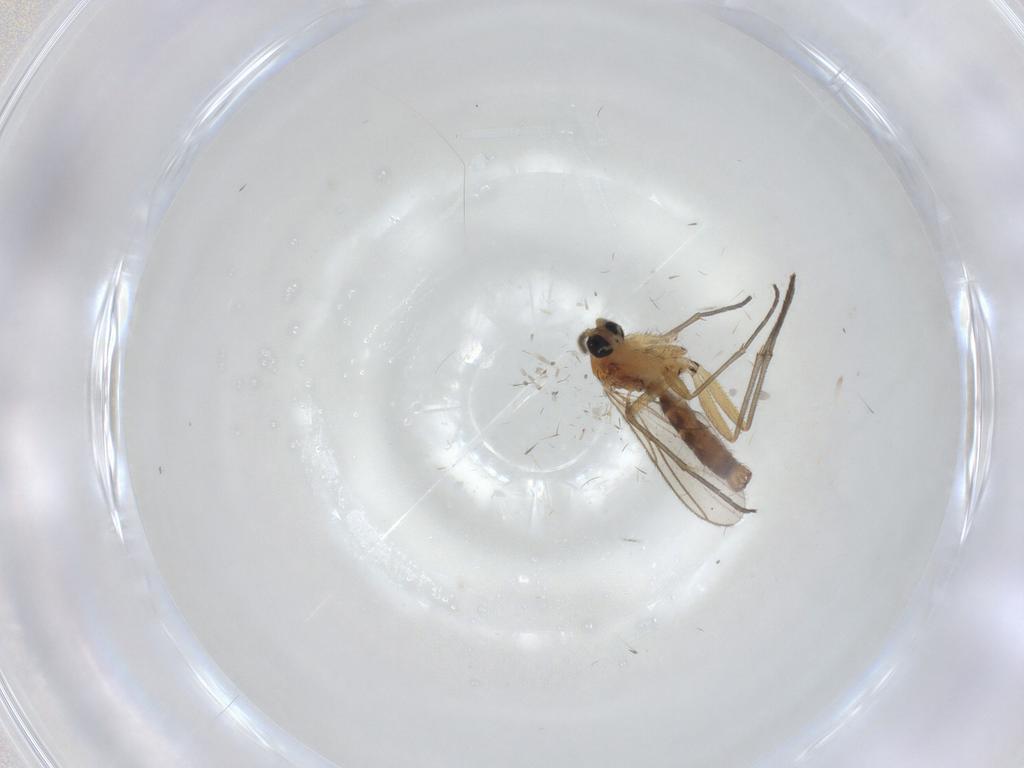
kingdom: Animalia
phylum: Arthropoda
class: Insecta
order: Diptera
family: Sciaridae
